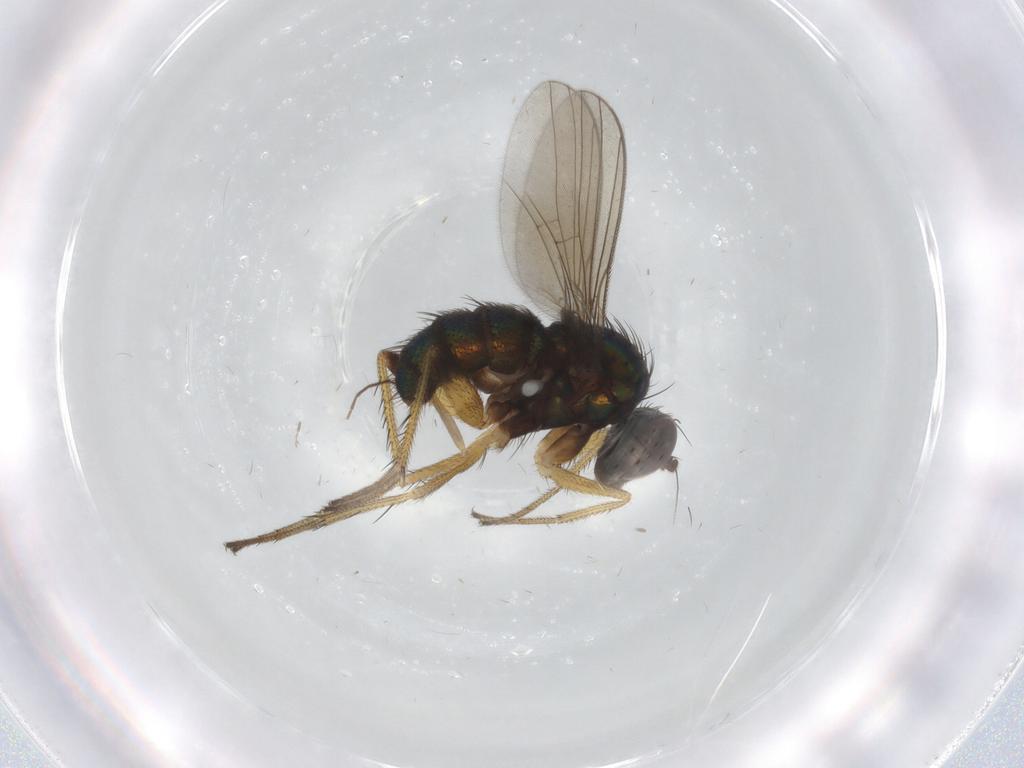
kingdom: Animalia
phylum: Arthropoda
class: Insecta
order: Diptera
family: Dolichopodidae
